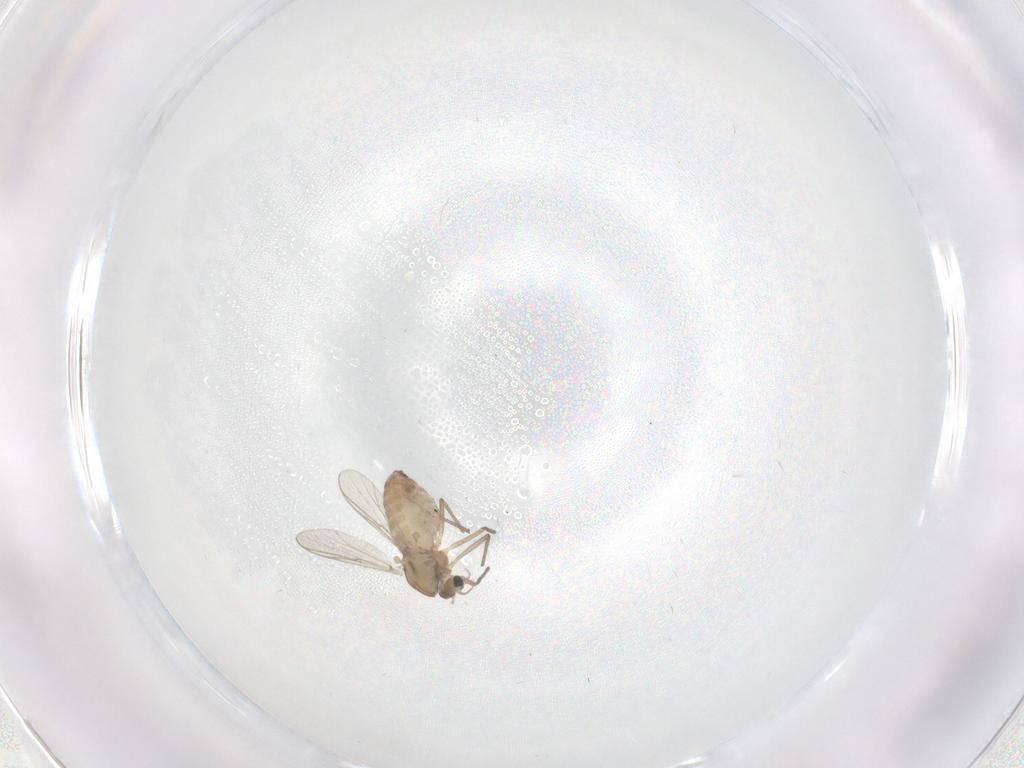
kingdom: Animalia
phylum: Arthropoda
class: Insecta
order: Diptera
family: Chironomidae
